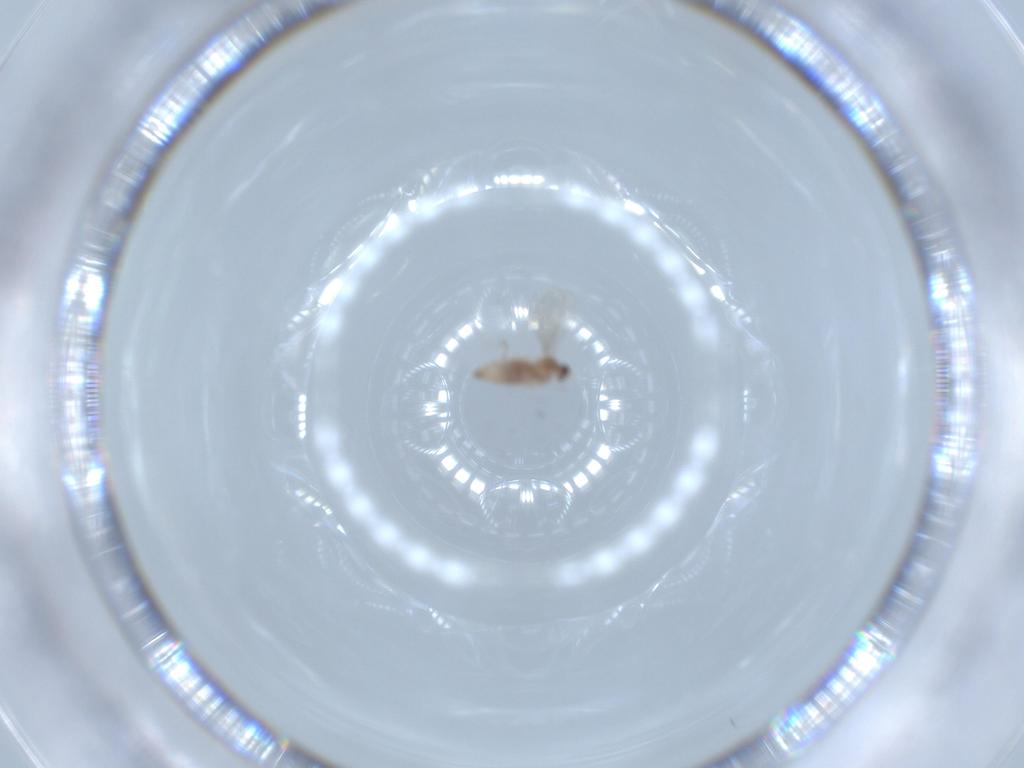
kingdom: Animalia
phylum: Arthropoda
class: Insecta
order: Diptera
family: Cecidomyiidae
